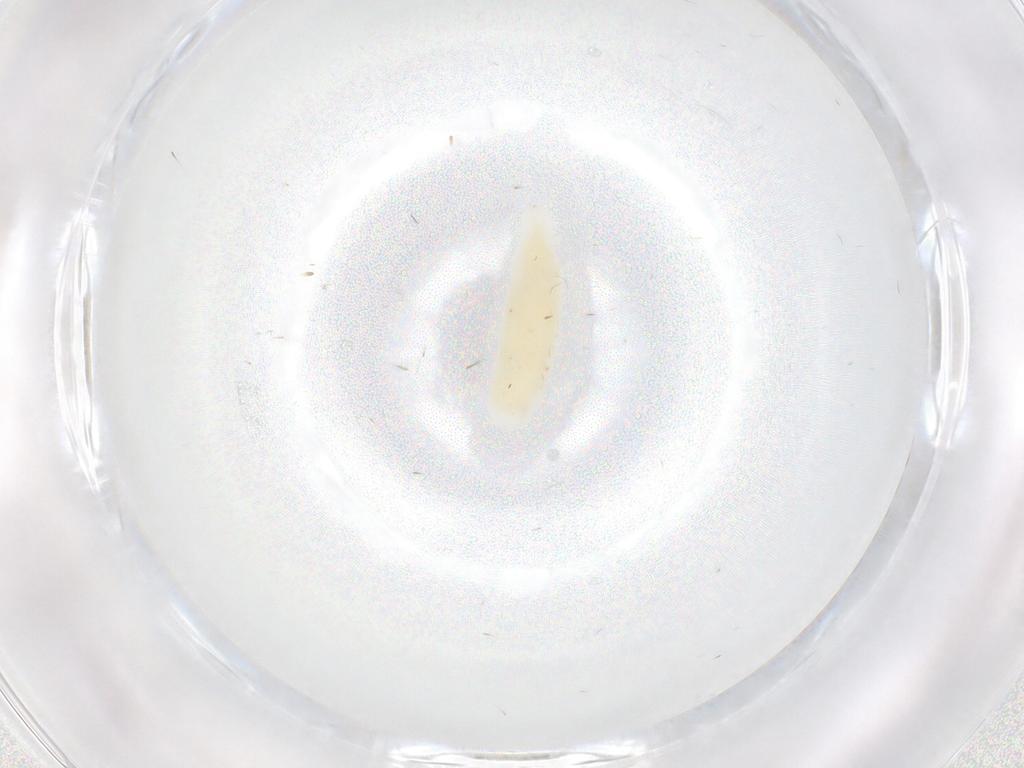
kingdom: Animalia
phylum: Arthropoda
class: Insecta
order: Diptera
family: Calliphoridae
